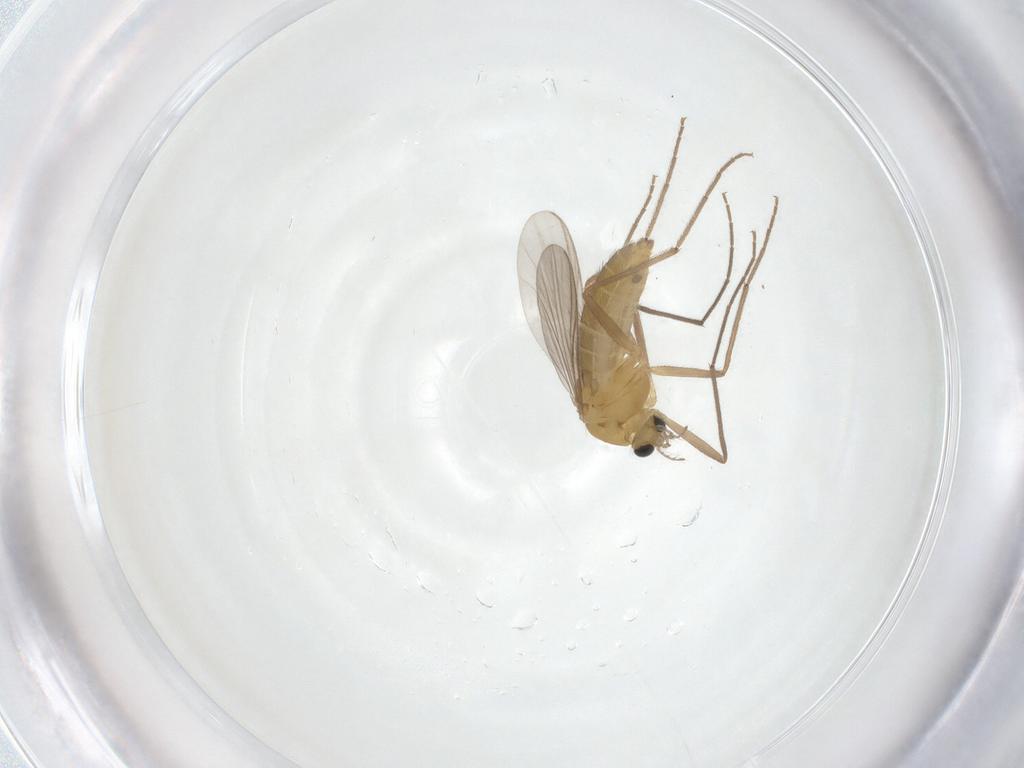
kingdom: Animalia
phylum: Arthropoda
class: Insecta
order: Diptera
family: Chironomidae
